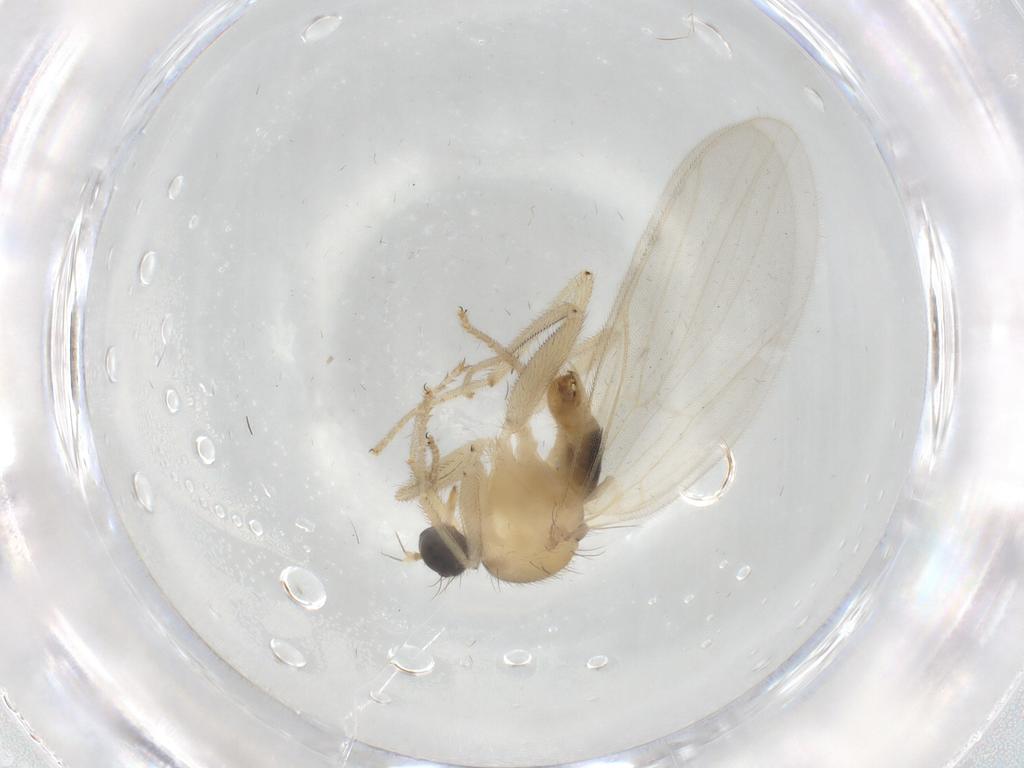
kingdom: Animalia
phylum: Arthropoda
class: Insecta
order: Diptera
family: Hybotidae
